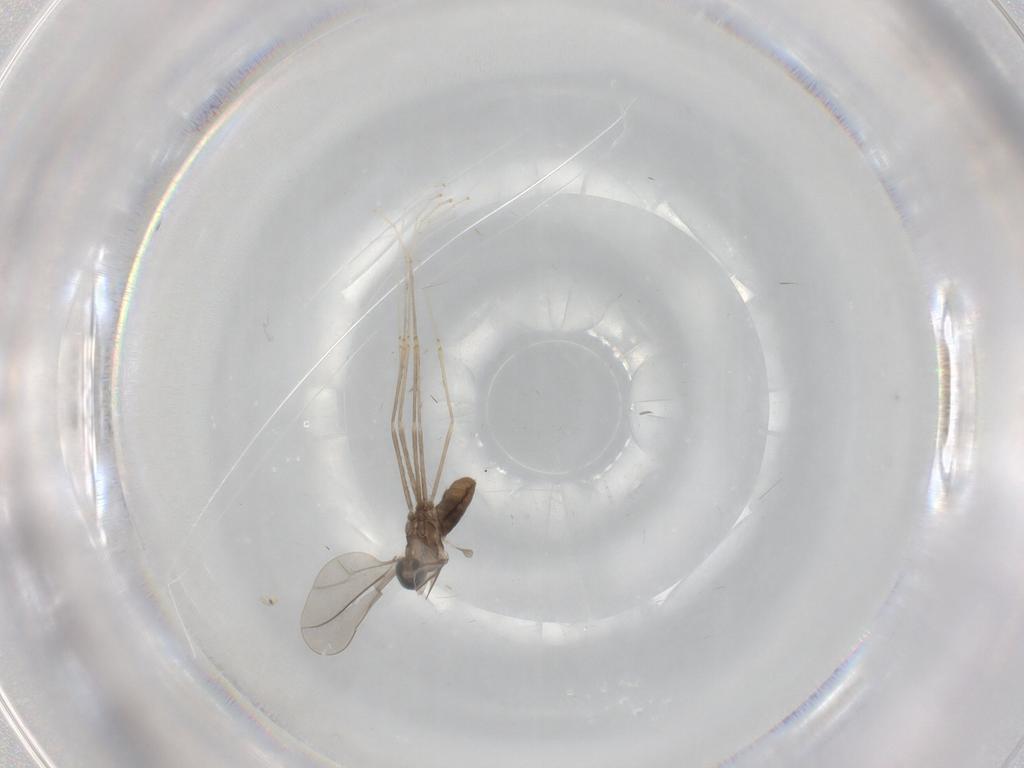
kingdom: Animalia
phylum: Arthropoda
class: Insecta
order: Diptera
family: Cecidomyiidae
